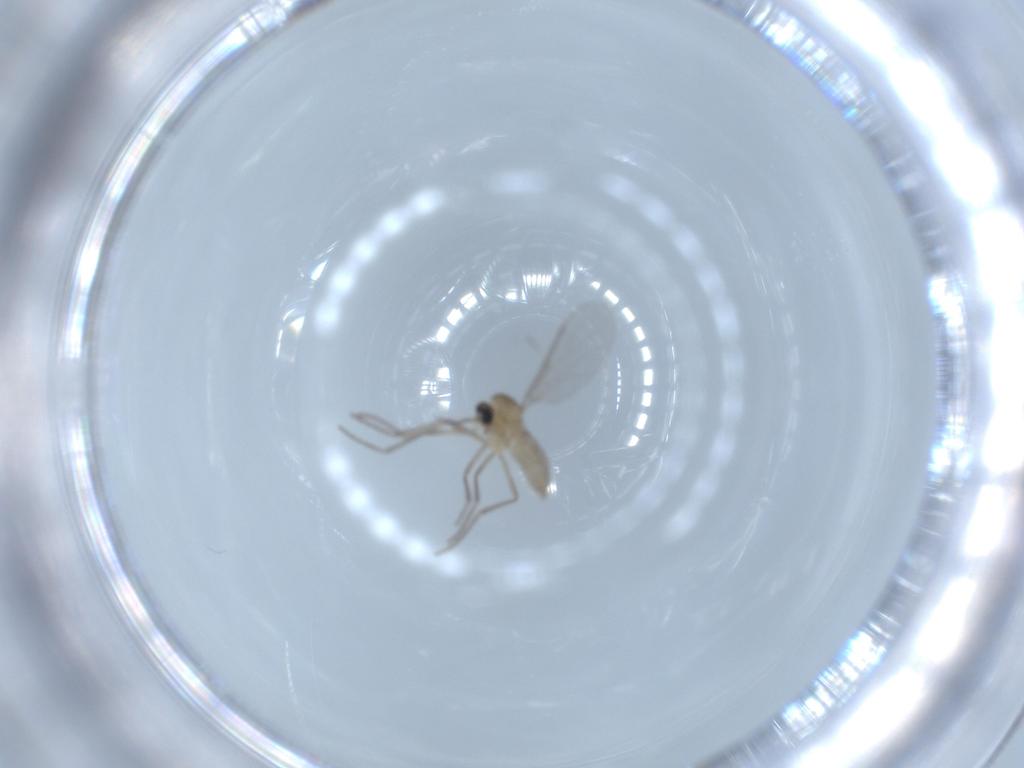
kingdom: Animalia
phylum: Arthropoda
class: Insecta
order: Diptera
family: Cecidomyiidae
